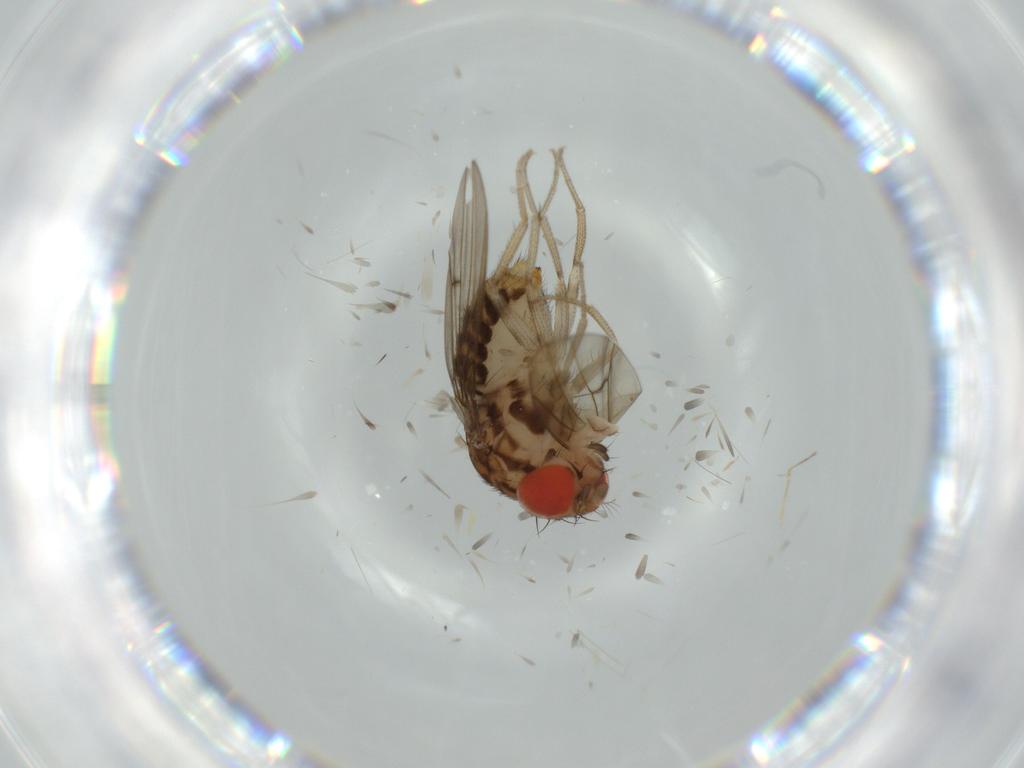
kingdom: Animalia
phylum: Arthropoda
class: Insecta
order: Diptera
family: Drosophilidae
